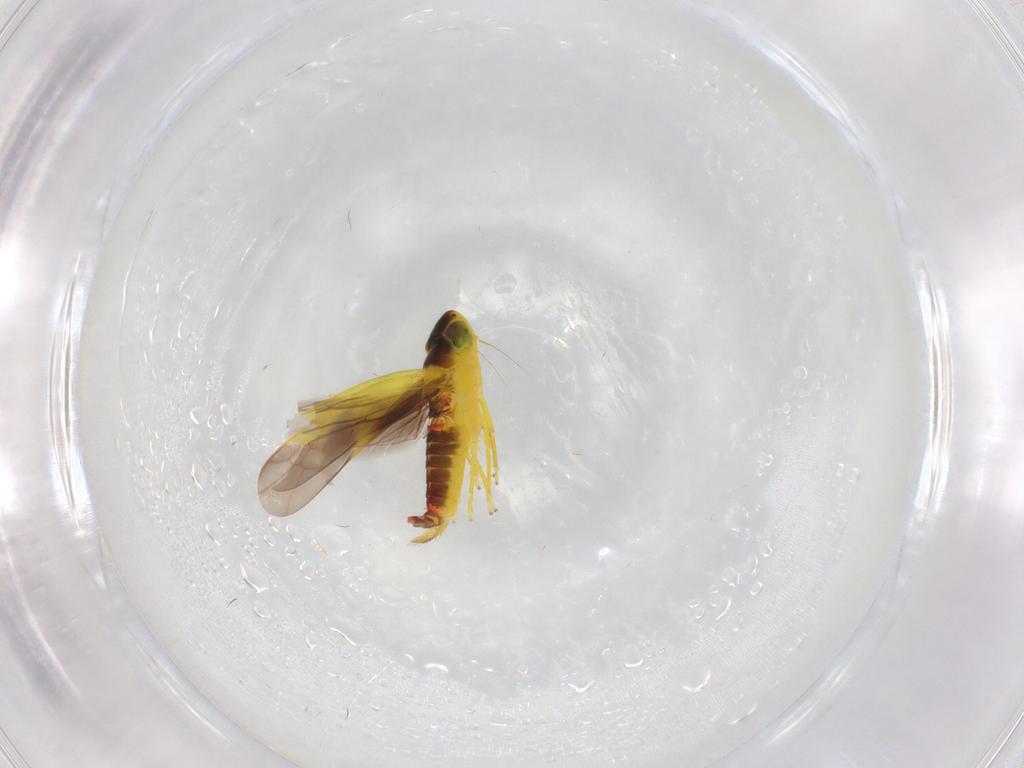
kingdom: Animalia
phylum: Arthropoda
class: Insecta
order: Hemiptera
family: Cicadellidae
